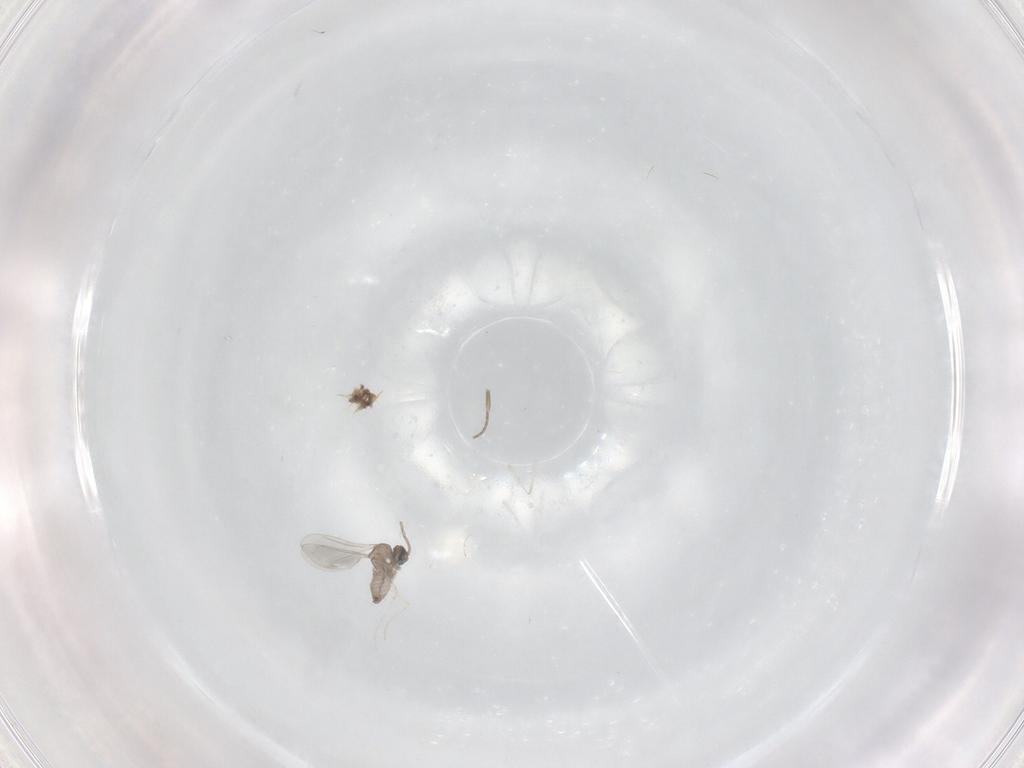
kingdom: Animalia
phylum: Arthropoda
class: Insecta
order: Diptera
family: Cecidomyiidae
